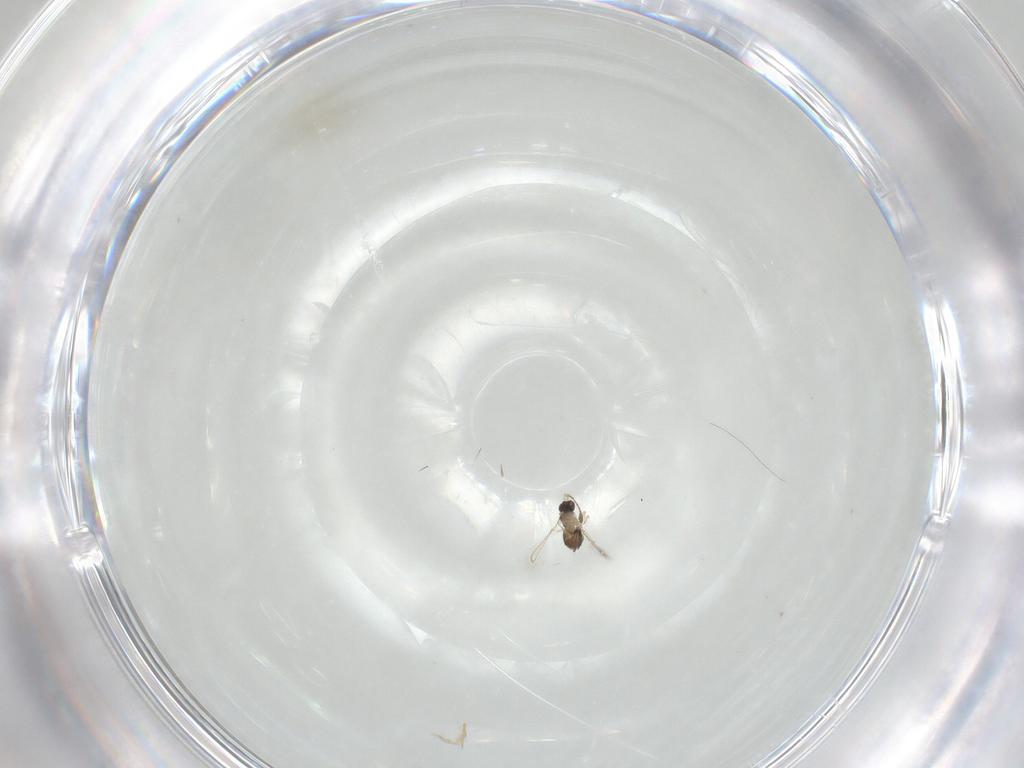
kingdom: Animalia
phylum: Arthropoda
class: Insecta
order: Hymenoptera
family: Mymaridae
